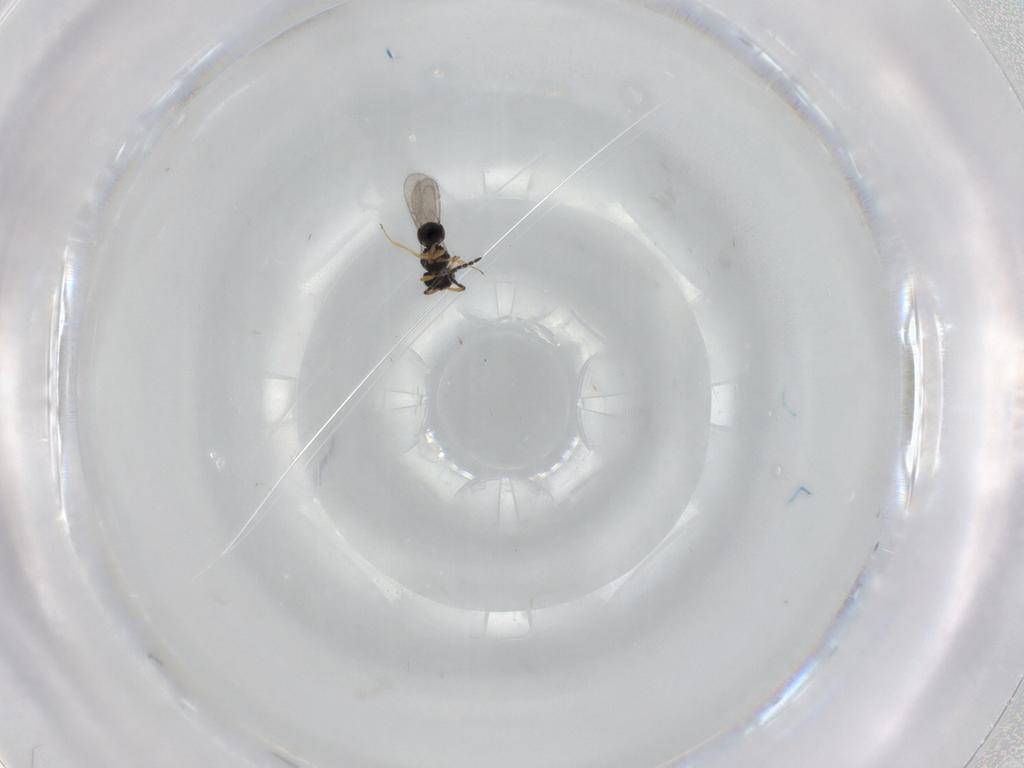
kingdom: Animalia
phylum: Arthropoda
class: Insecta
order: Hymenoptera
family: Scelionidae
